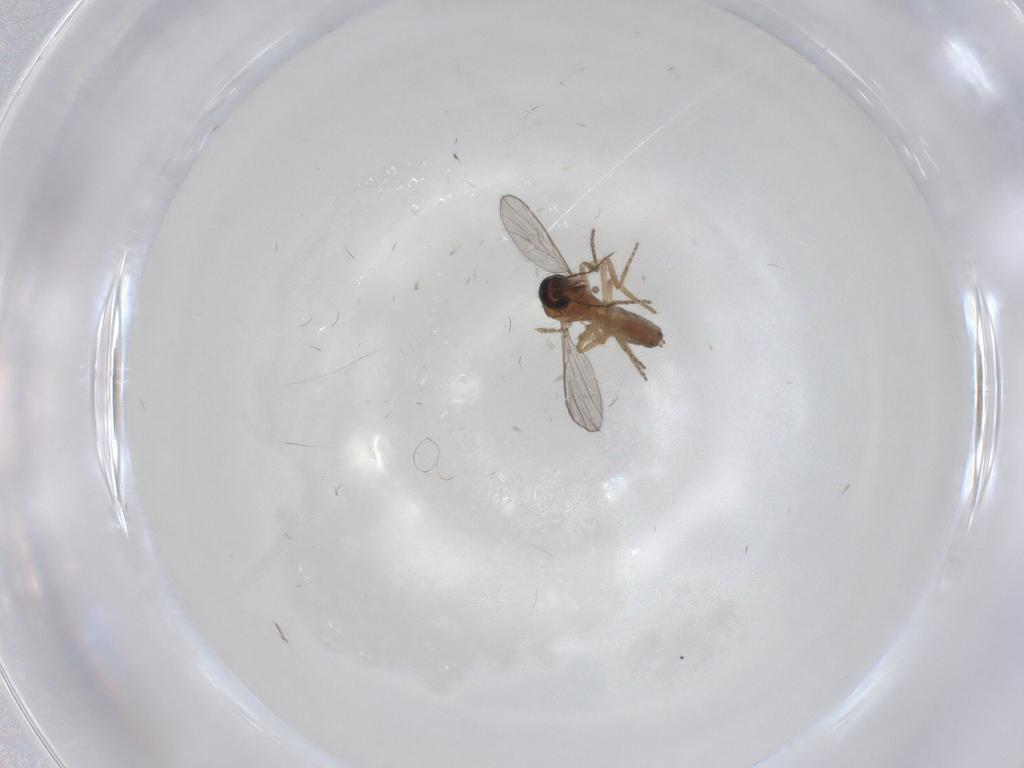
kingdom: Animalia
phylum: Arthropoda
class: Insecta
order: Diptera
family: Ceratopogonidae
